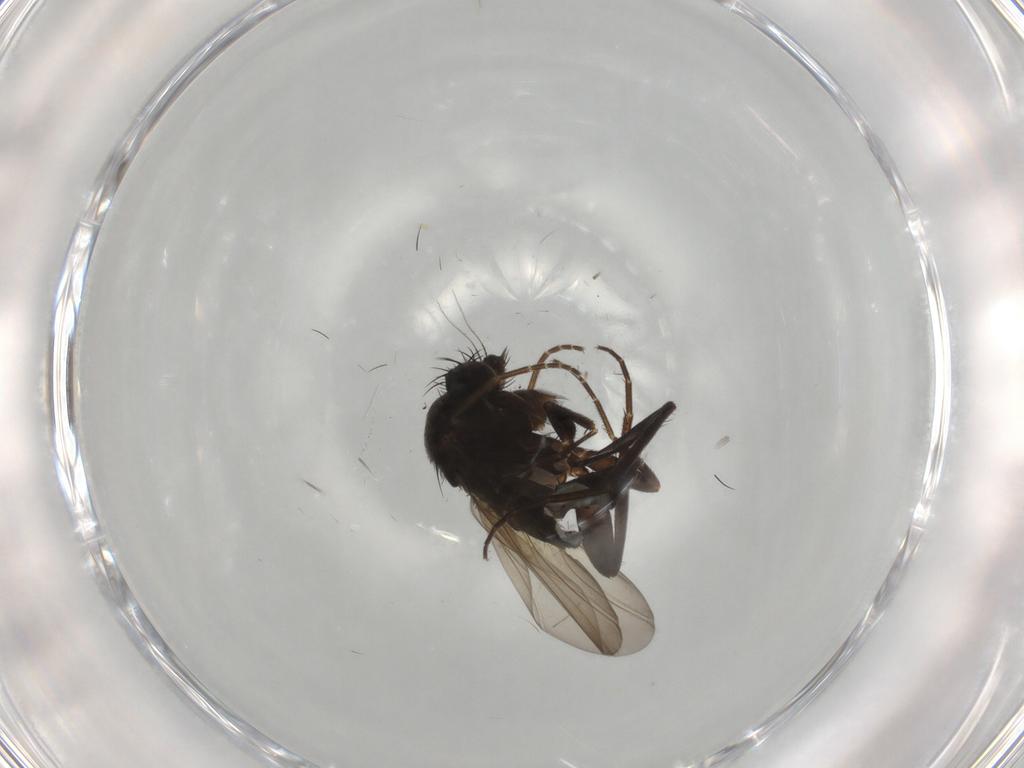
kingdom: Animalia
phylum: Arthropoda
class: Insecta
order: Diptera
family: Phoridae
